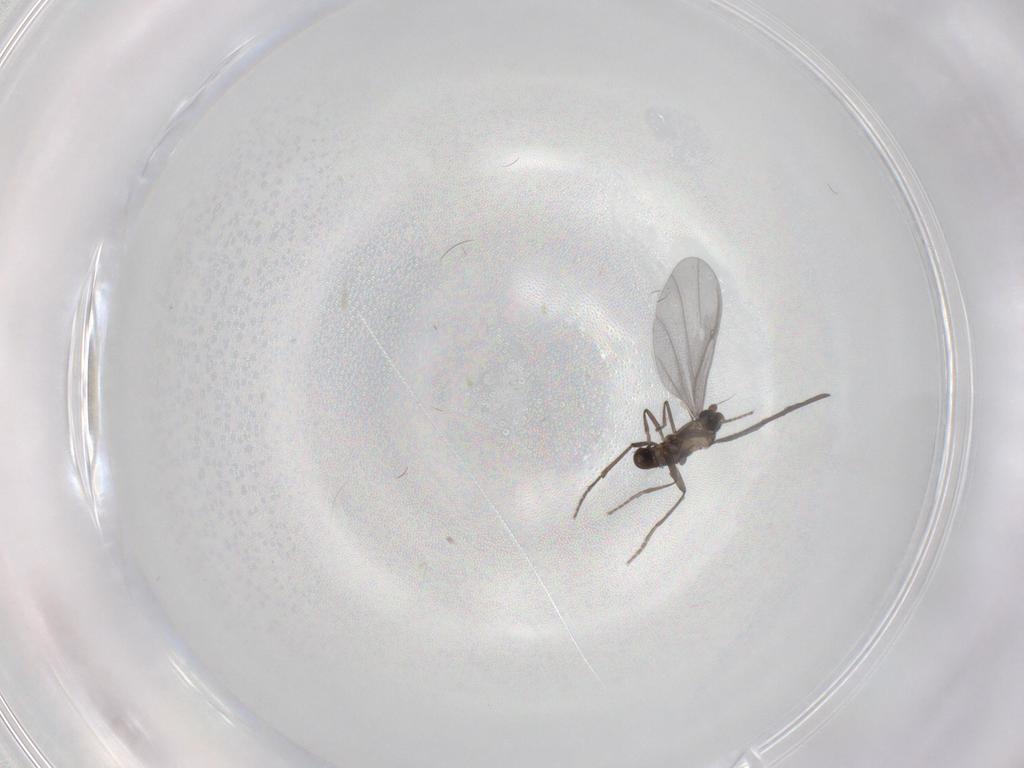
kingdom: Animalia
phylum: Arthropoda
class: Insecta
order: Diptera
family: Phoridae
